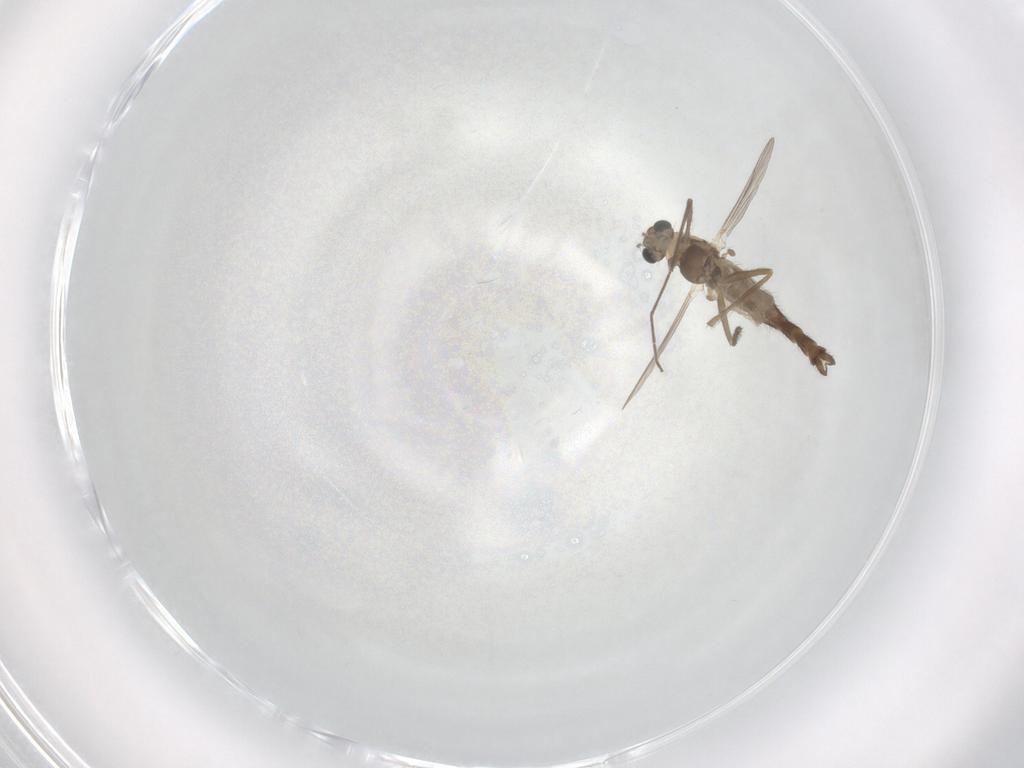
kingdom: Animalia
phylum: Arthropoda
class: Insecta
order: Diptera
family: Chironomidae
